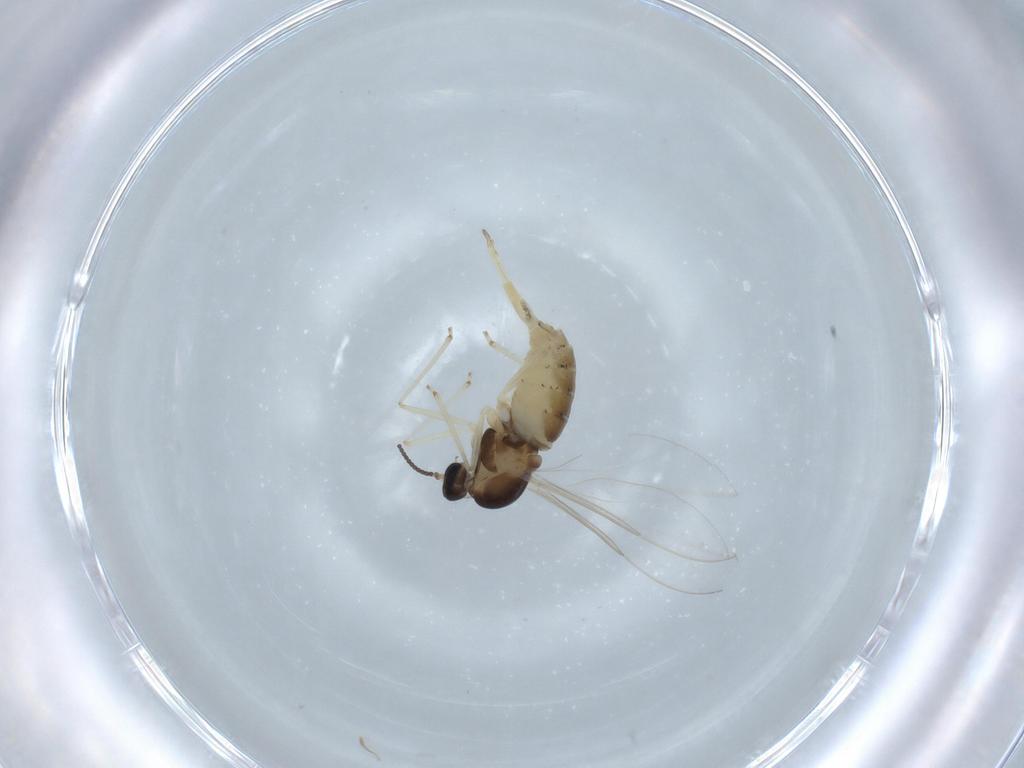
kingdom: Animalia
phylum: Arthropoda
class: Insecta
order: Diptera
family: Cecidomyiidae
